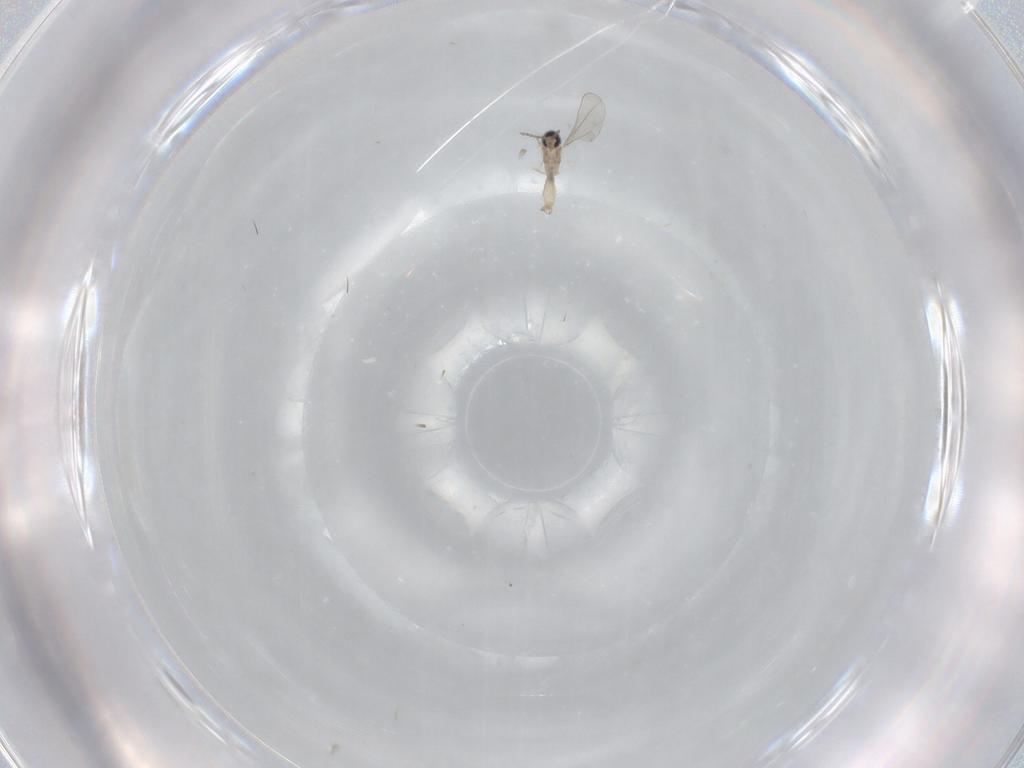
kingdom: Animalia
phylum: Arthropoda
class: Insecta
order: Diptera
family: Cecidomyiidae
